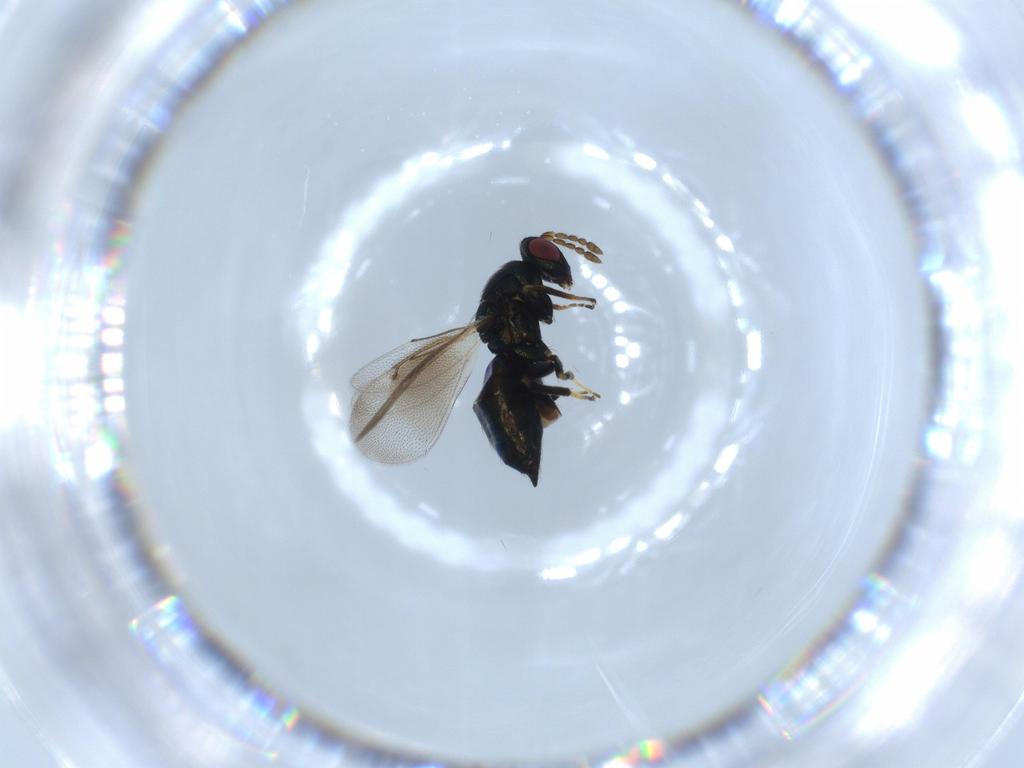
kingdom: Animalia
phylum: Arthropoda
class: Insecta
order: Hymenoptera
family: Eulophidae
